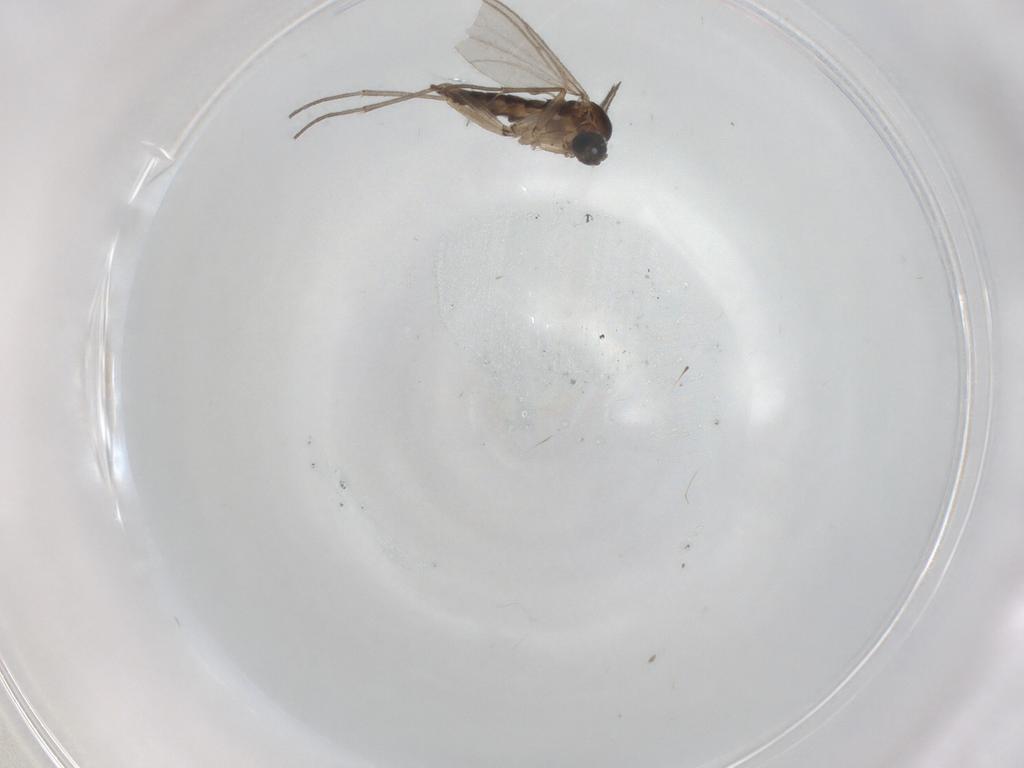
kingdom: Animalia
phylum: Arthropoda
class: Insecta
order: Diptera
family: Sciaridae
